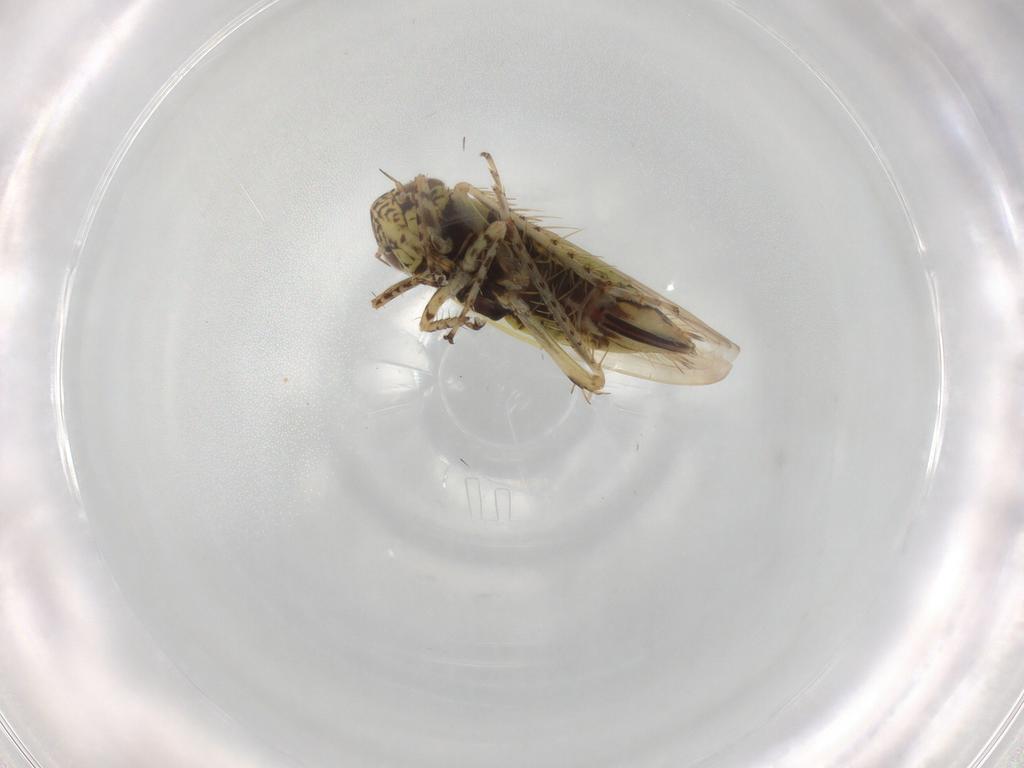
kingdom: Animalia
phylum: Arthropoda
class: Insecta
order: Hemiptera
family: Cicadellidae
